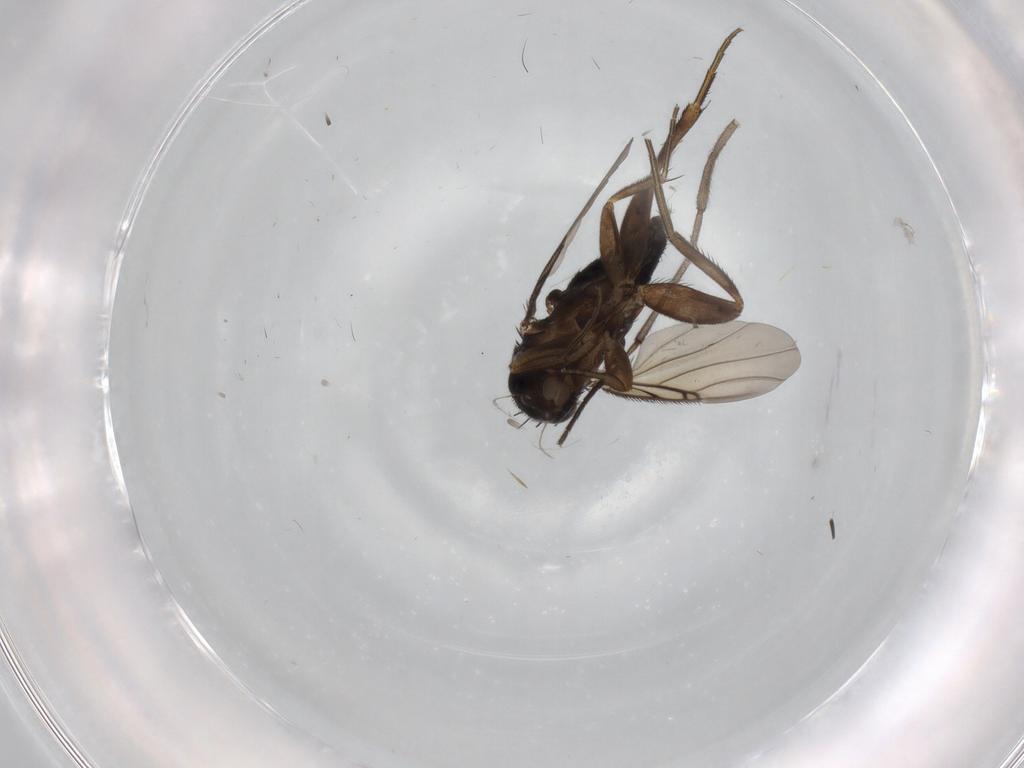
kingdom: Animalia
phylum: Arthropoda
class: Insecta
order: Diptera
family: Phoridae
